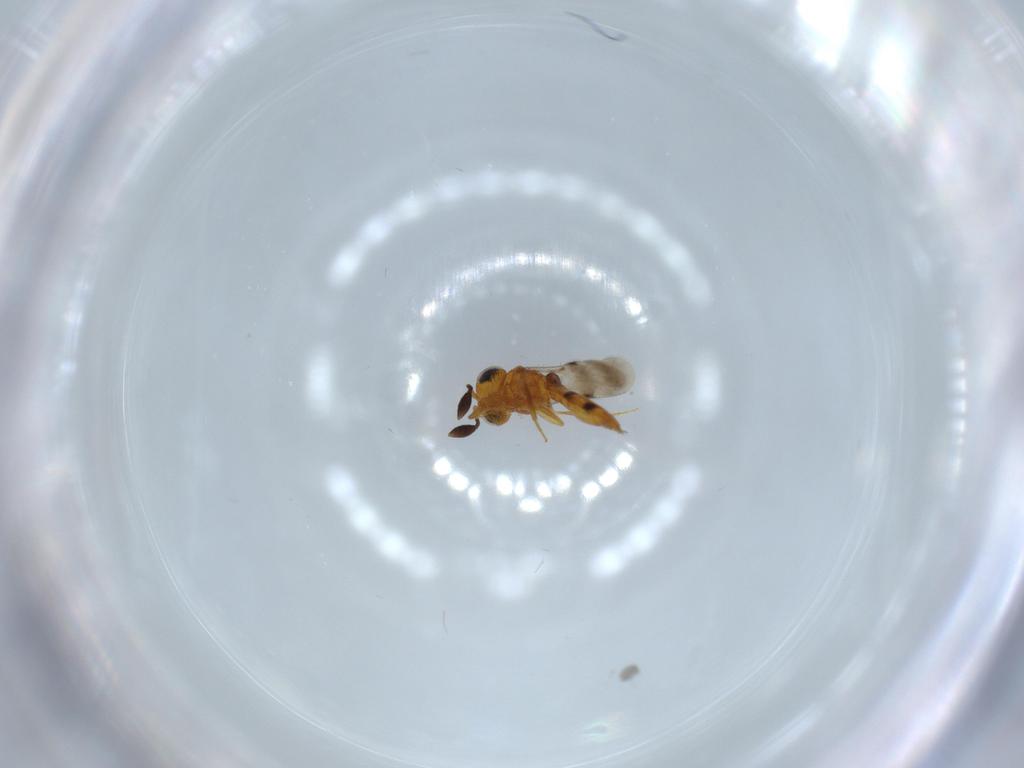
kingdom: Animalia
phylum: Arthropoda
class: Insecta
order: Hymenoptera
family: Scelionidae
